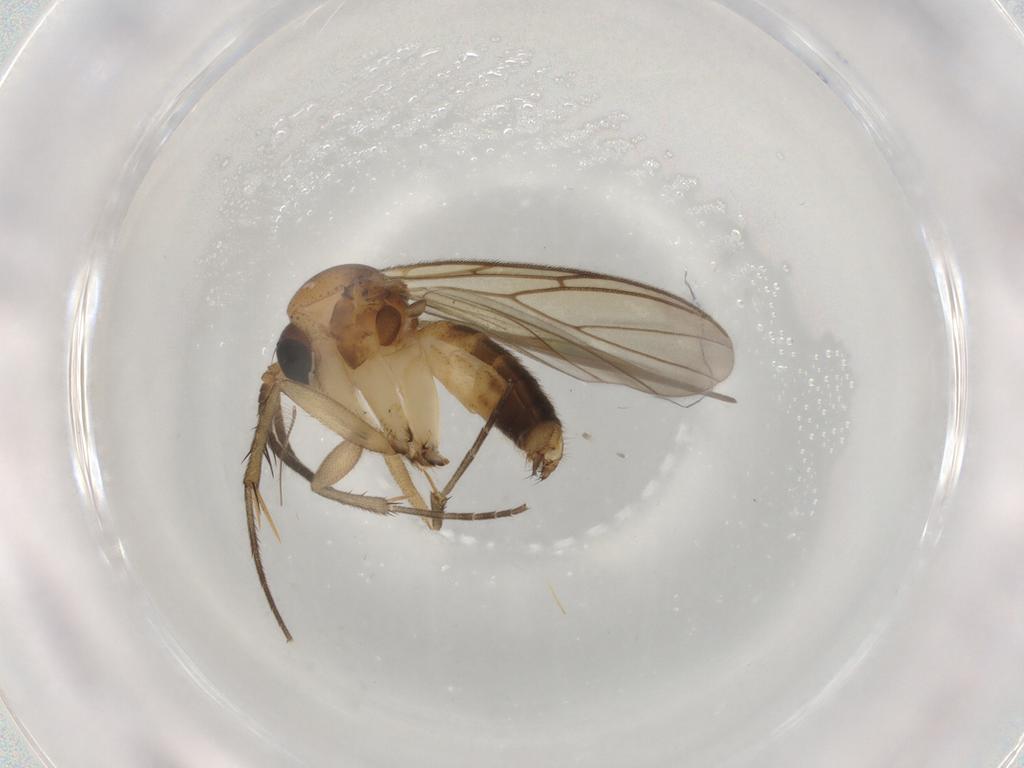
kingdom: Animalia
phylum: Arthropoda
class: Insecta
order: Diptera
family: Mycetophilidae
